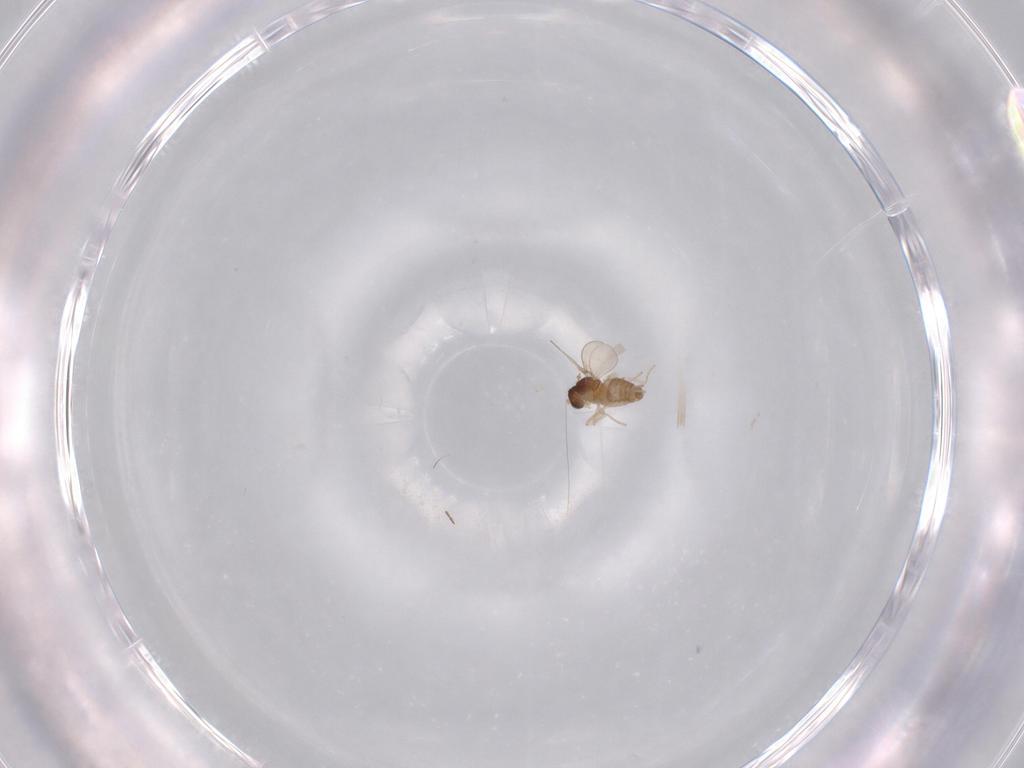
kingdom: Animalia
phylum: Arthropoda
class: Insecta
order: Diptera
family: Cecidomyiidae
